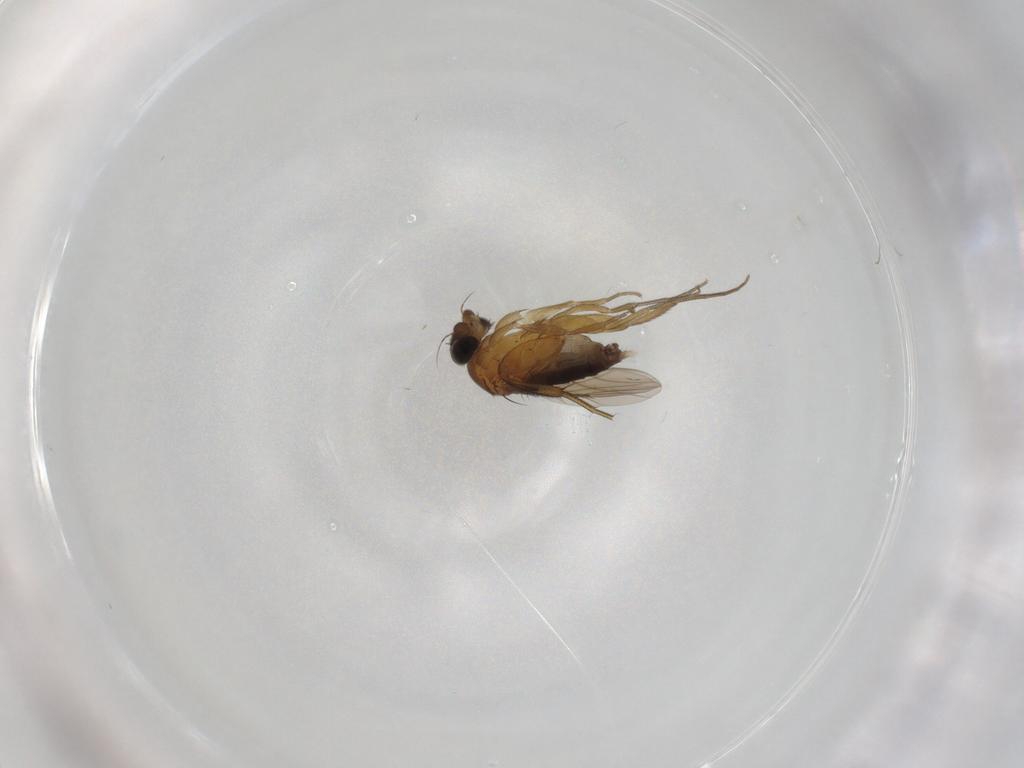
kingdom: Animalia
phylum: Arthropoda
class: Insecta
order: Diptera
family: Phoridae
